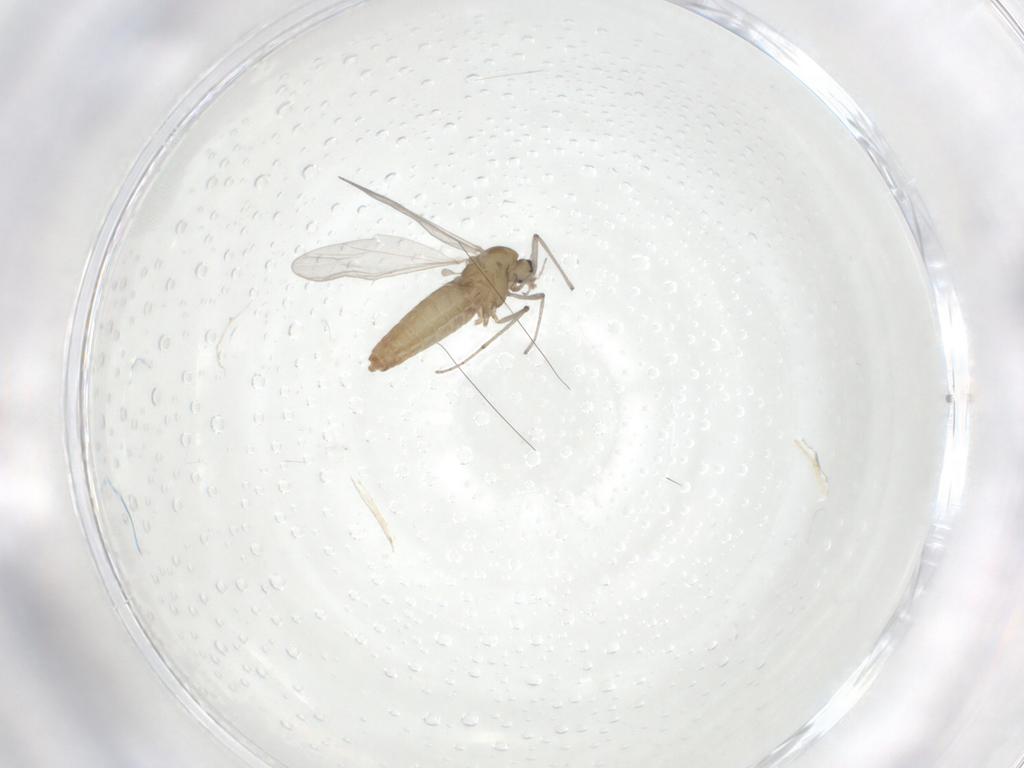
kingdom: Animalia
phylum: Arthropoda
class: Insecta
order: Diptera
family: Chironomidae
